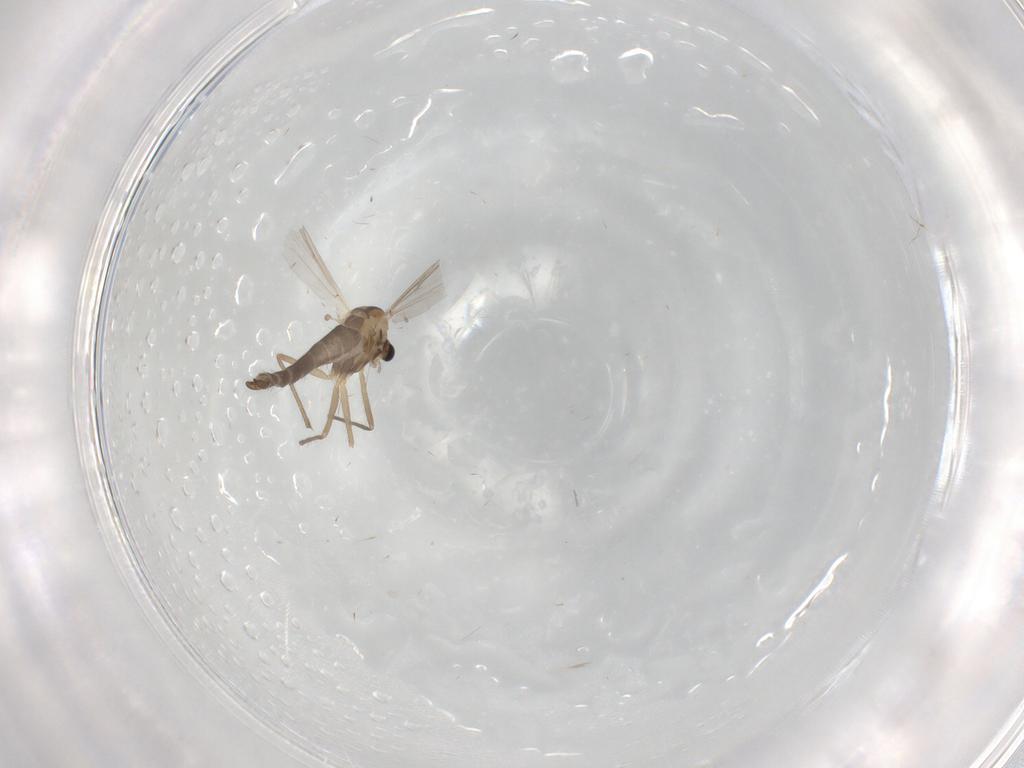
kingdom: Animalia
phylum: Arthropoda
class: Insecta
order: Diptera
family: Chironomidae
